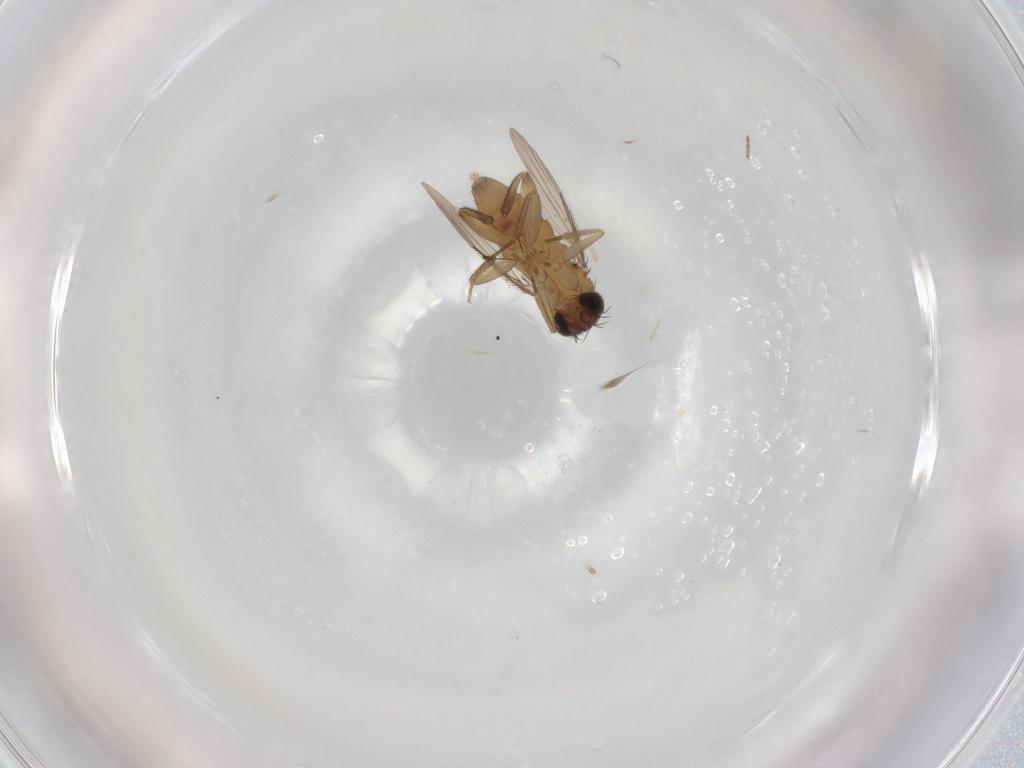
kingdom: Animalia
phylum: Arthropoda
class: Insecta
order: Diptera
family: Phoridae
